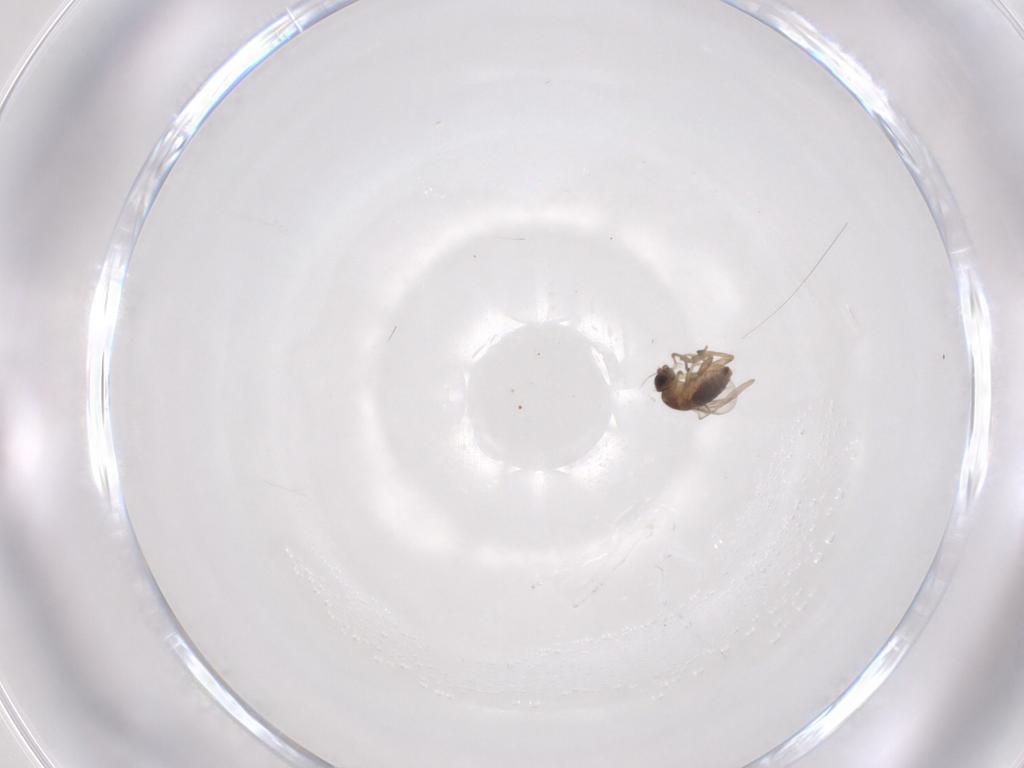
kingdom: Animalia
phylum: Arthropoda
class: Insecta
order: Diptera
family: Phoridae
